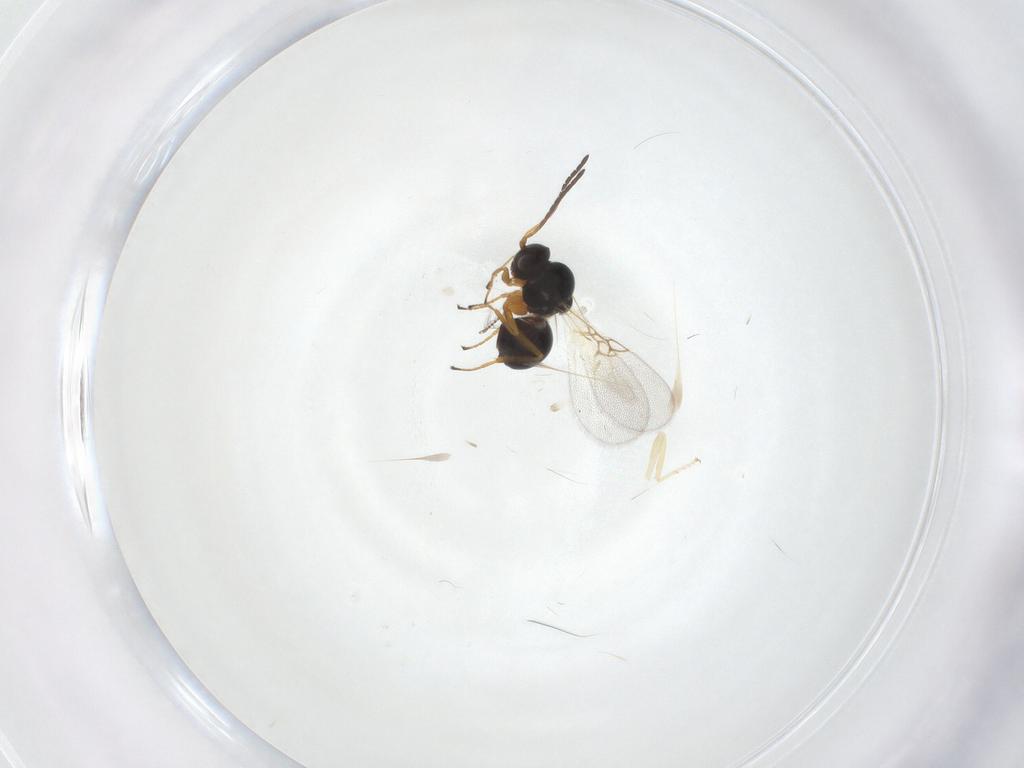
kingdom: Animalia
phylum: Arthropoda
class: Insecta
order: Hymenoptera
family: Figitidae
